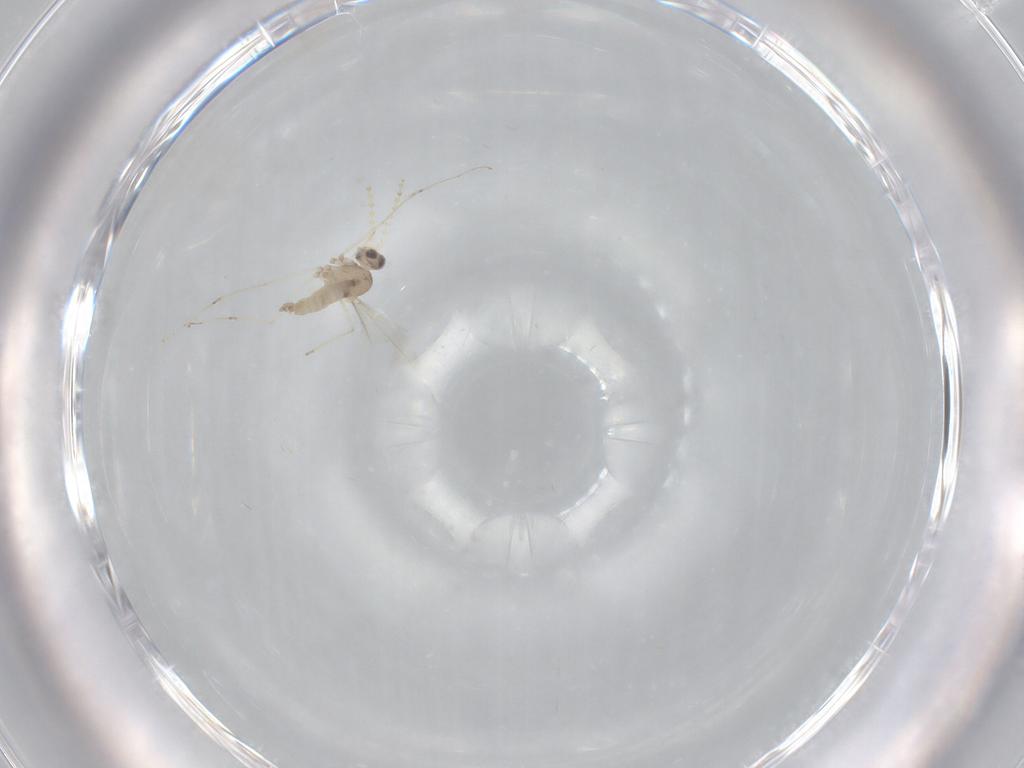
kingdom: Animalia
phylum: Arthropoda
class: Insecta
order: Diptera
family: Cecidomyiidae
